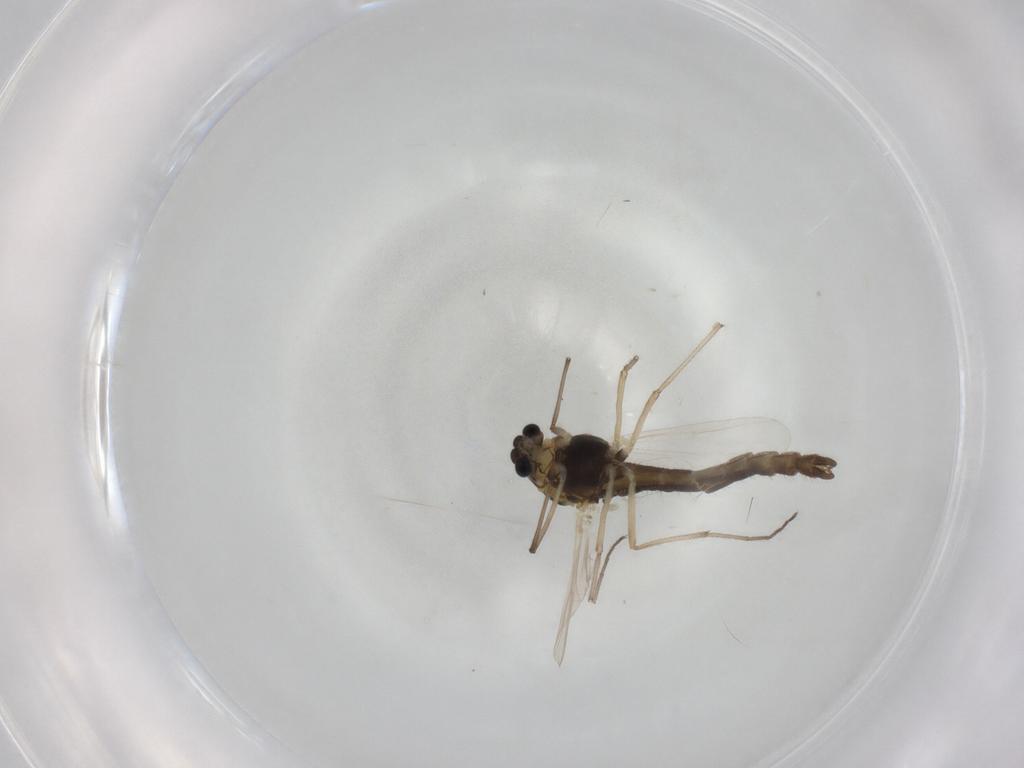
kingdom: Animalia
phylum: Arthropoda
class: Insecta
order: Diptera
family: Chironomidae
